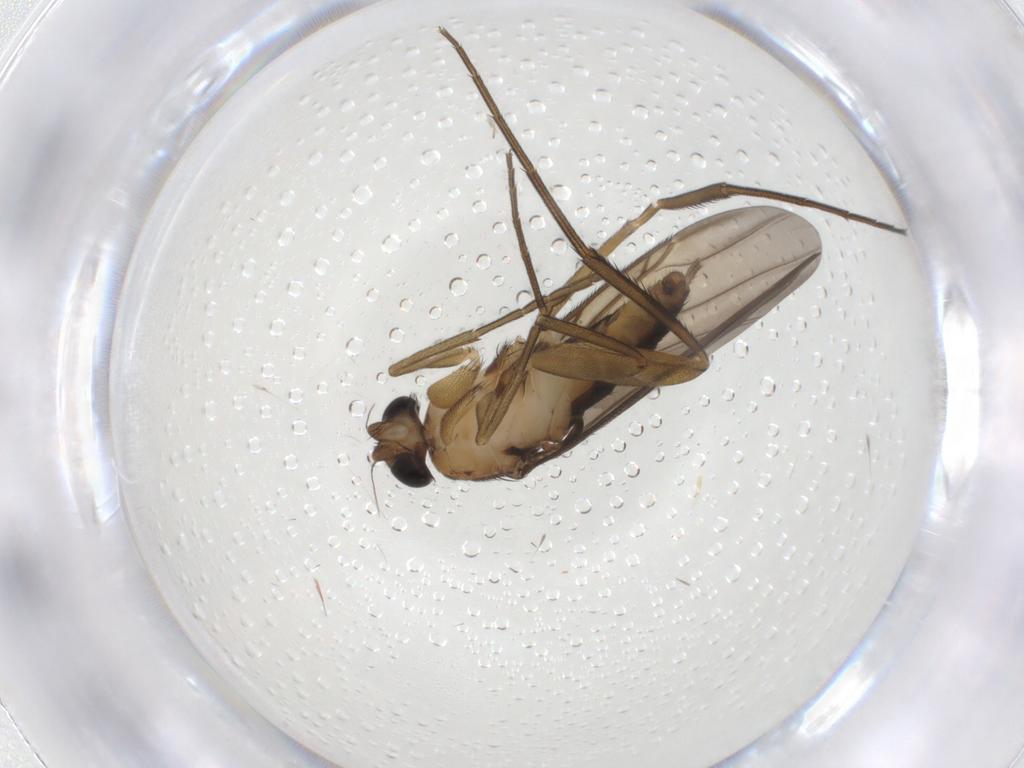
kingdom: Animalia
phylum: Arthropoda
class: Insecta
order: Diptera
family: Phoridae
